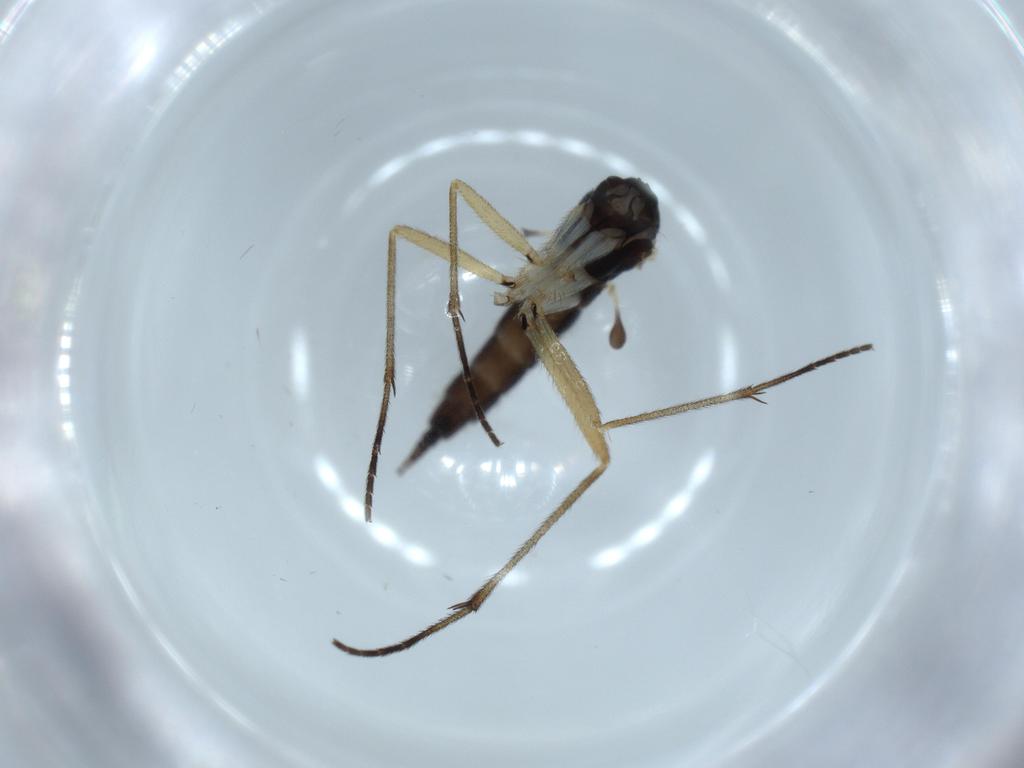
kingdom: Animalia
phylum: Arthropoda
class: Insecta
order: Diptera
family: Sciaridae
